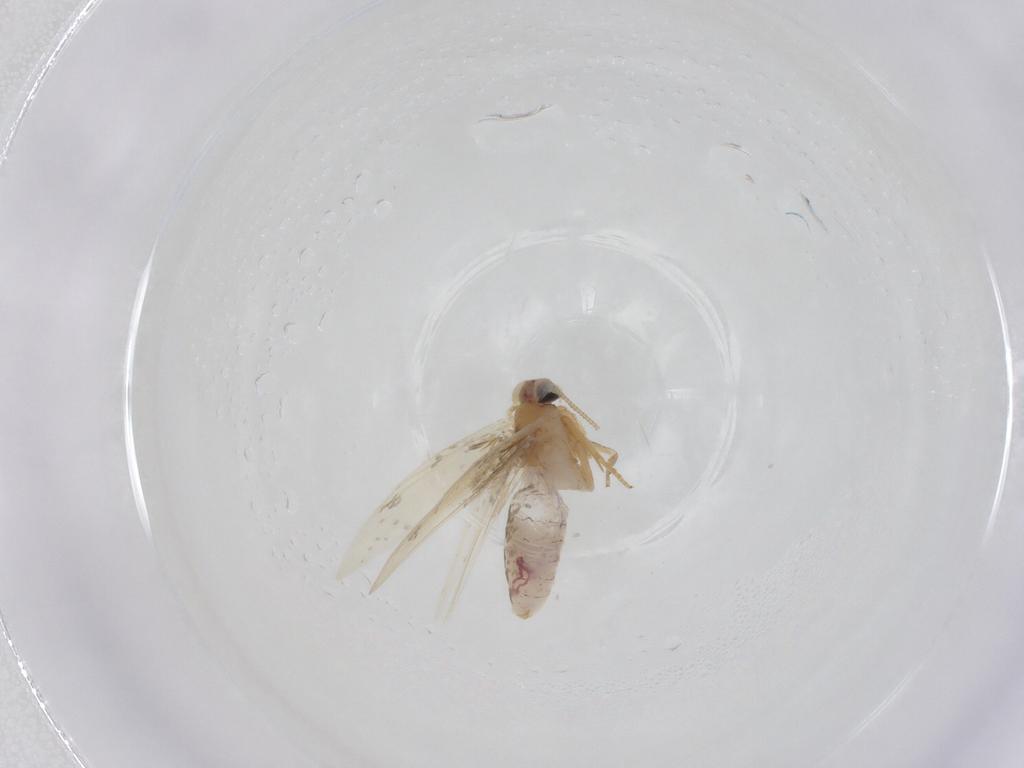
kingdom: Animalia
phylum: Arthropoda
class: Insecta
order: Lepidoptera
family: Nepticulidae
